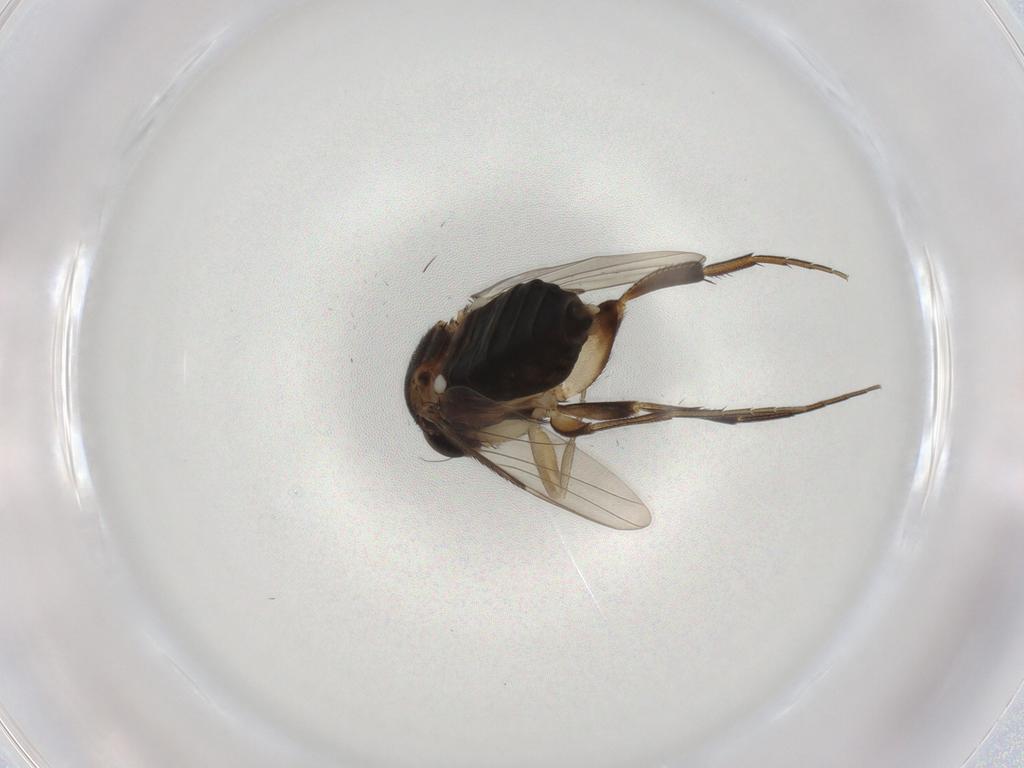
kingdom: Animalia
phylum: Arthropoda
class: Insecta
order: Diptera
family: Phoridae
